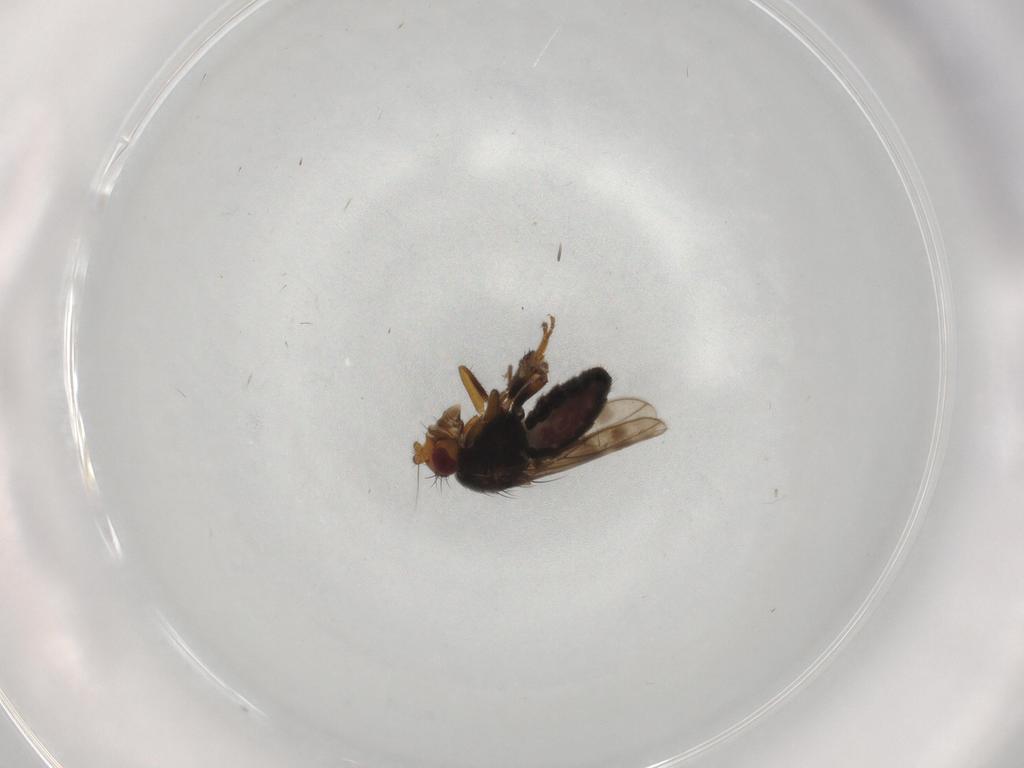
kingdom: Animalia
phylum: Arthropoda
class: Insecta
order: Diptera
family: Sphaeroceridae
